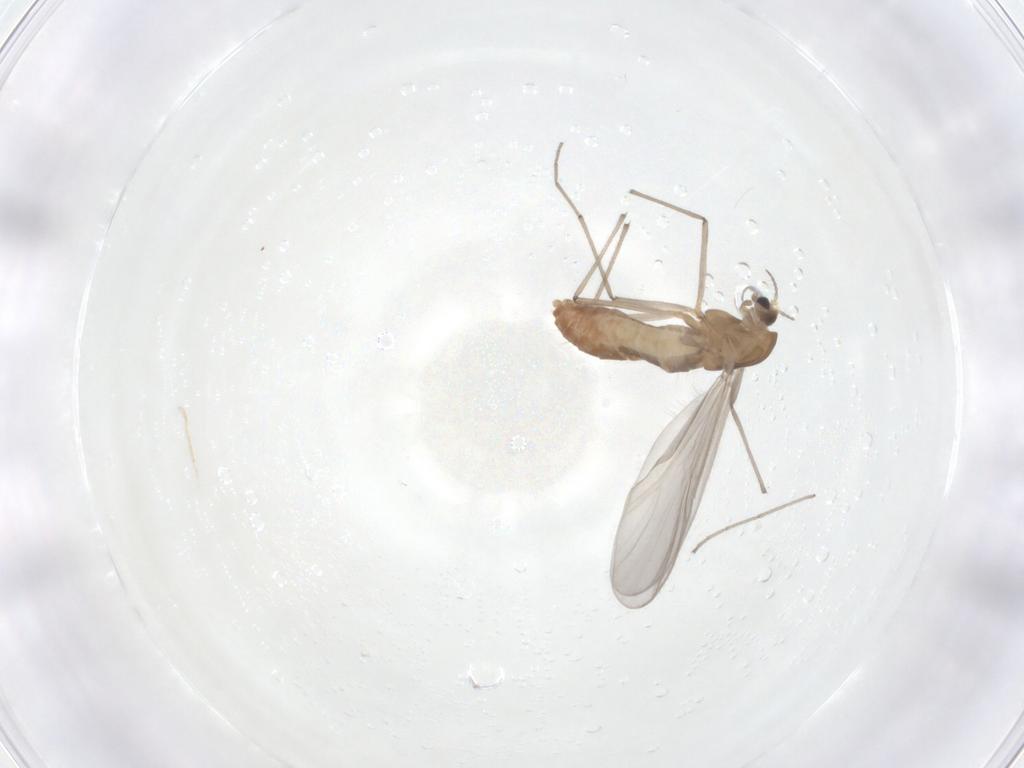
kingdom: Animalia
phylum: Arthropoda
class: Insecta
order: Diptera
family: Chironomidae
